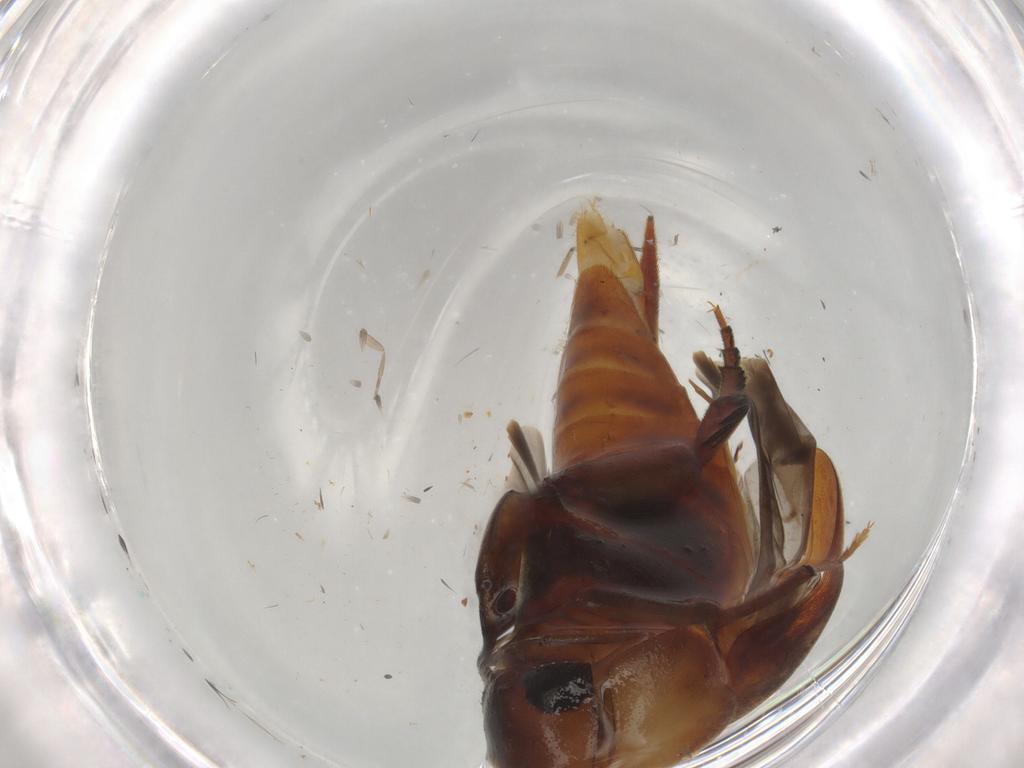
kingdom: Animalia
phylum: Arthropoda
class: Insecta
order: Coleoptera
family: Mordellidae
